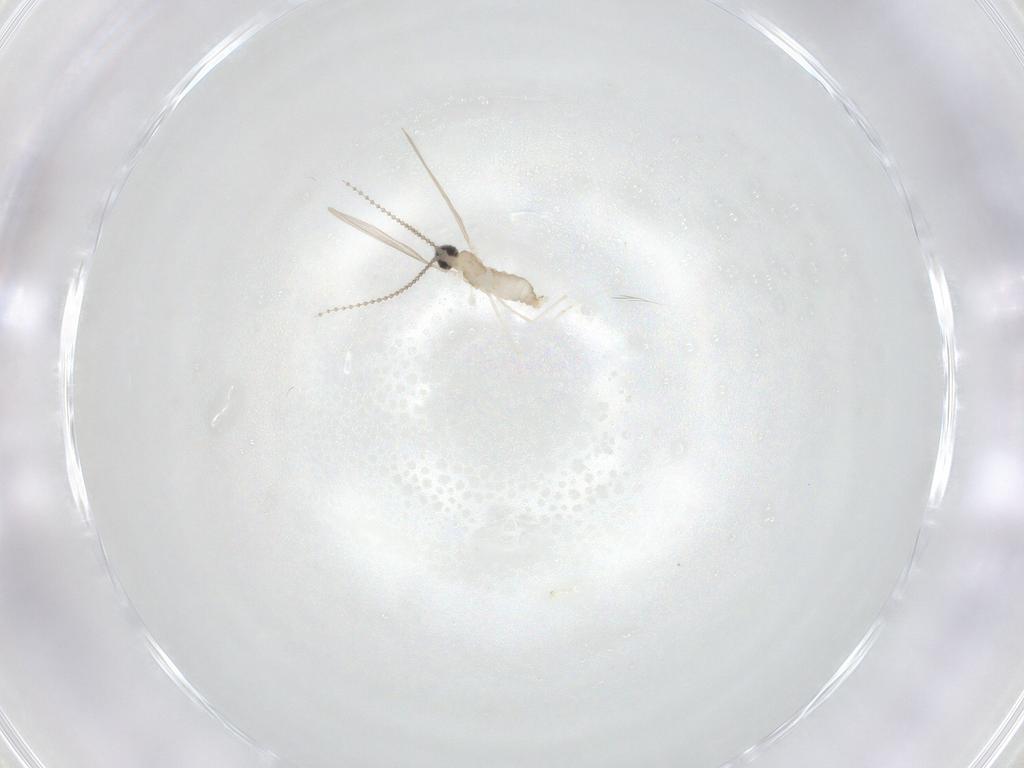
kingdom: Animalia
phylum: Arthropoda
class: Insecta
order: Diptera
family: Cecidomyiidae
